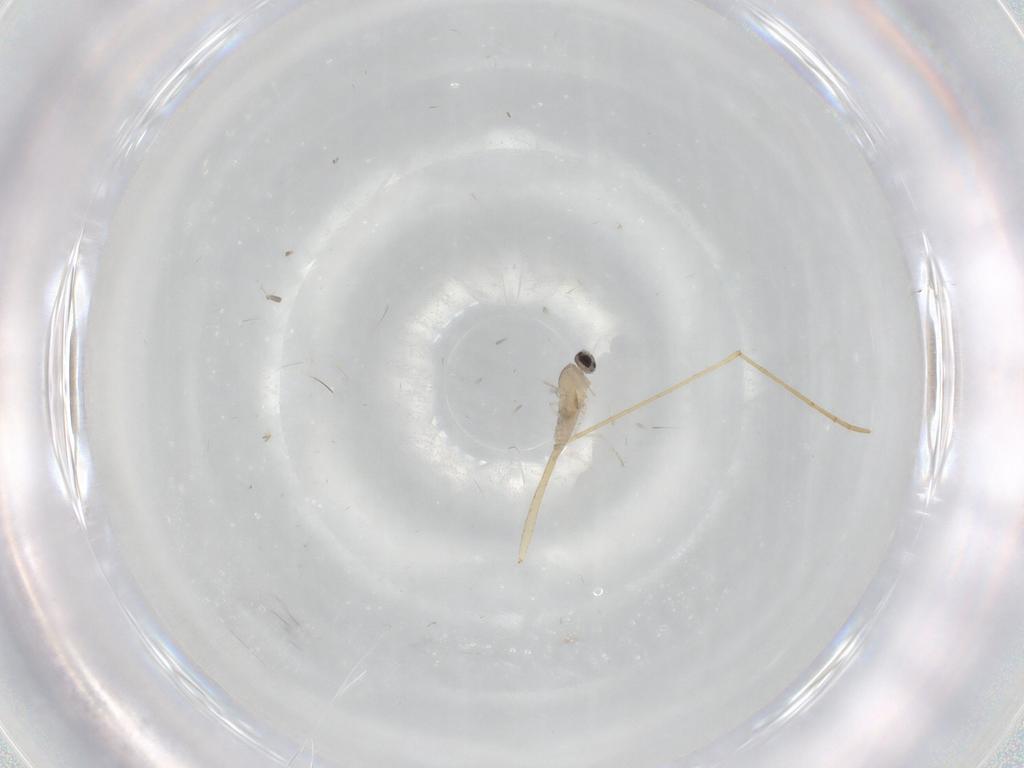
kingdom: Animalia
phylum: Arthropoda
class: Insecta
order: Diptera
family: Cecidomyiidae
